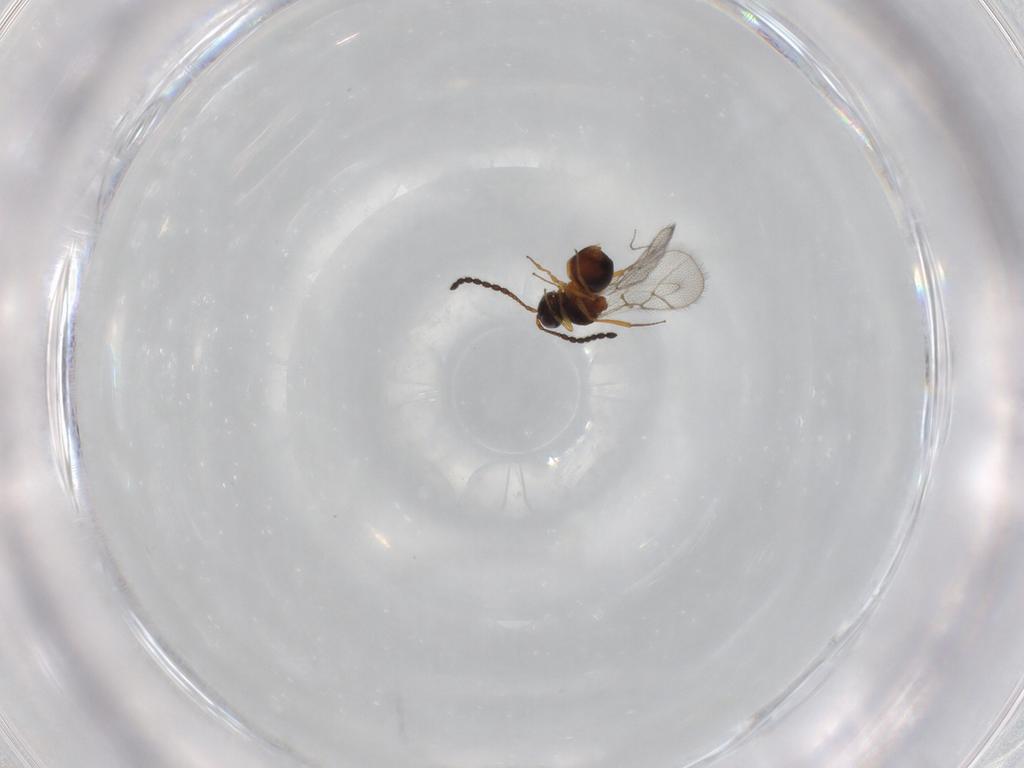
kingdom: Animalia
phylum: Arthropoda
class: Insecta
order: Hymenoptera
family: Figitidae
